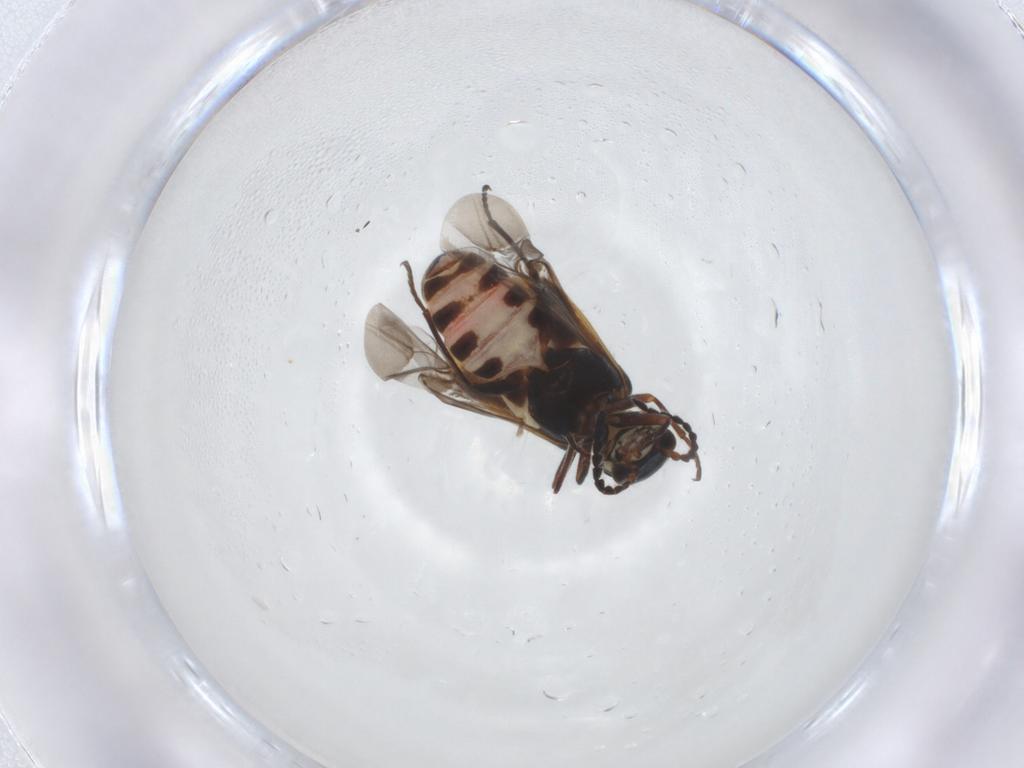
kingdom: Animalia
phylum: Arthropoda
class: Insecta
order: Coleoptera
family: Melyridae
